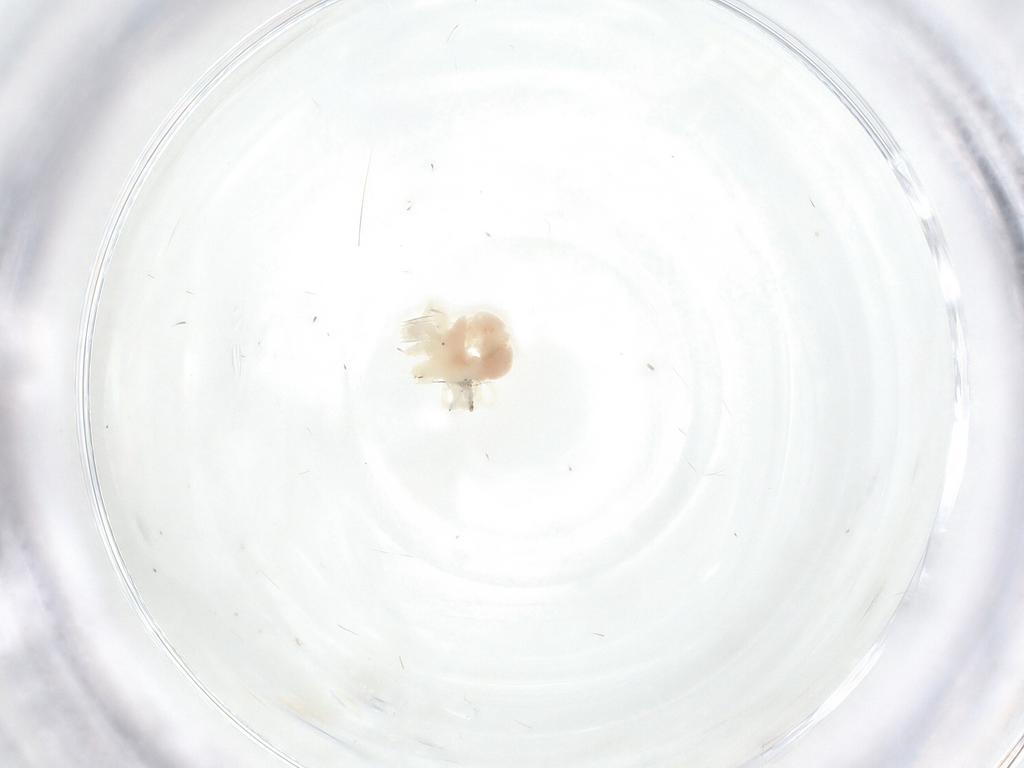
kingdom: Animalia
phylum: Arthropoda
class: Arachnida
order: Trombidiformes
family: Anystidae
